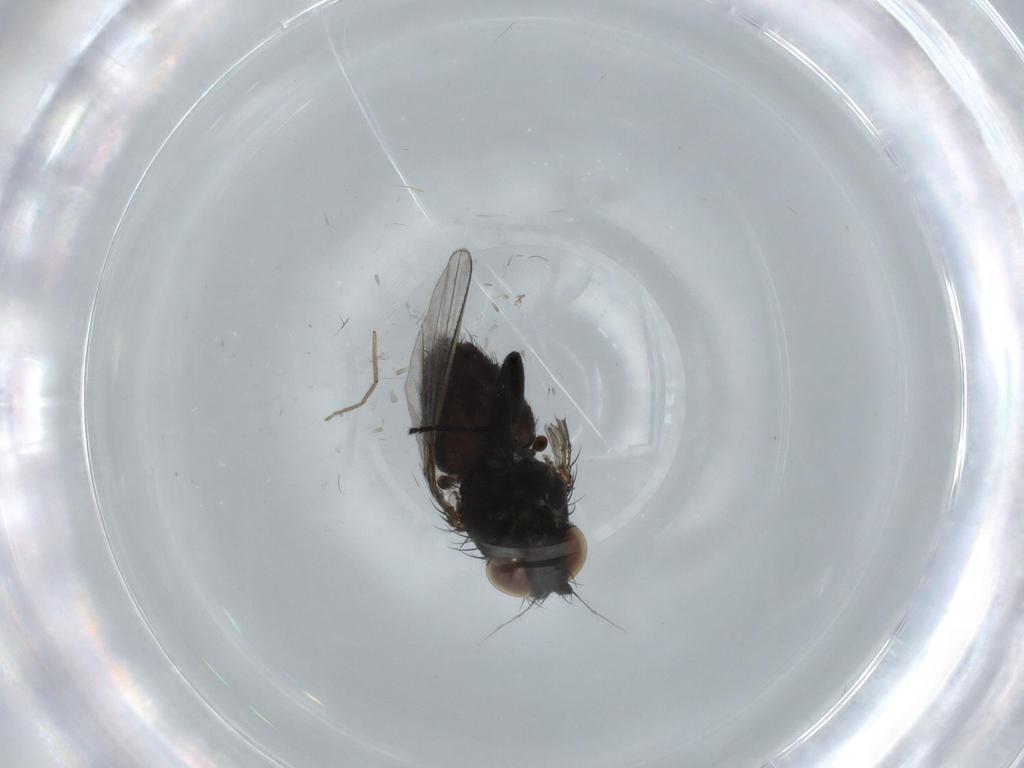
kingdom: Animalia
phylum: Arthropoda
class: Insecta
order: Diptera
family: Milichiidae
